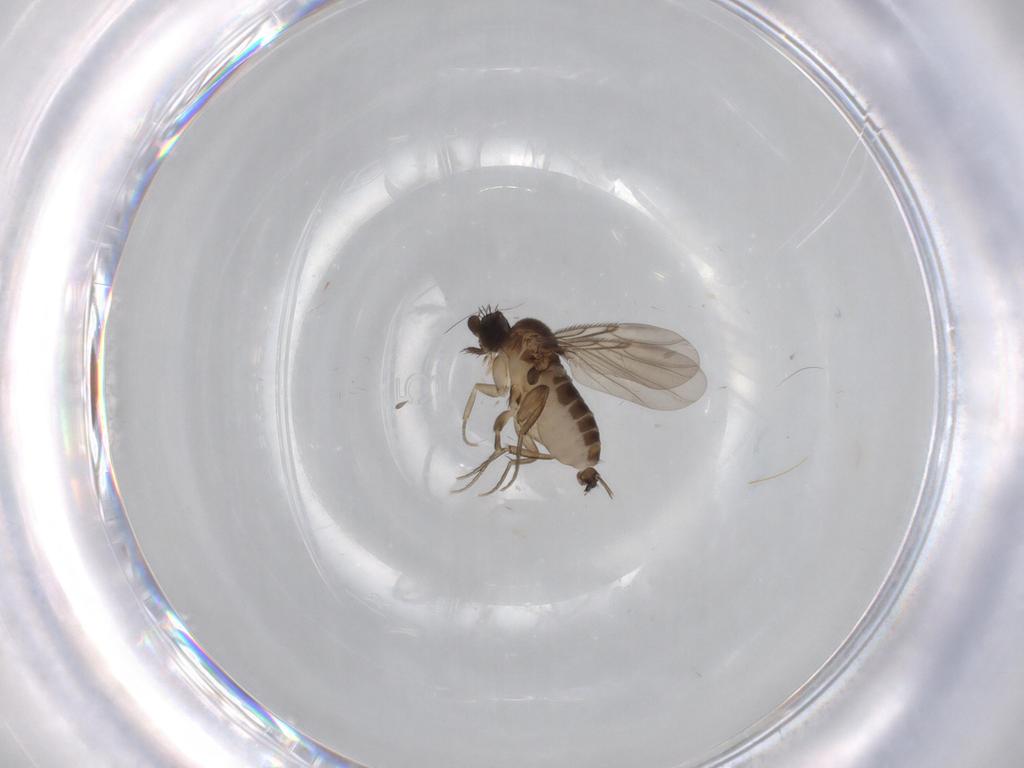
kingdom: Animalia
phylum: Arthropoda
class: Insecta
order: Diptera
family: Phoridae
